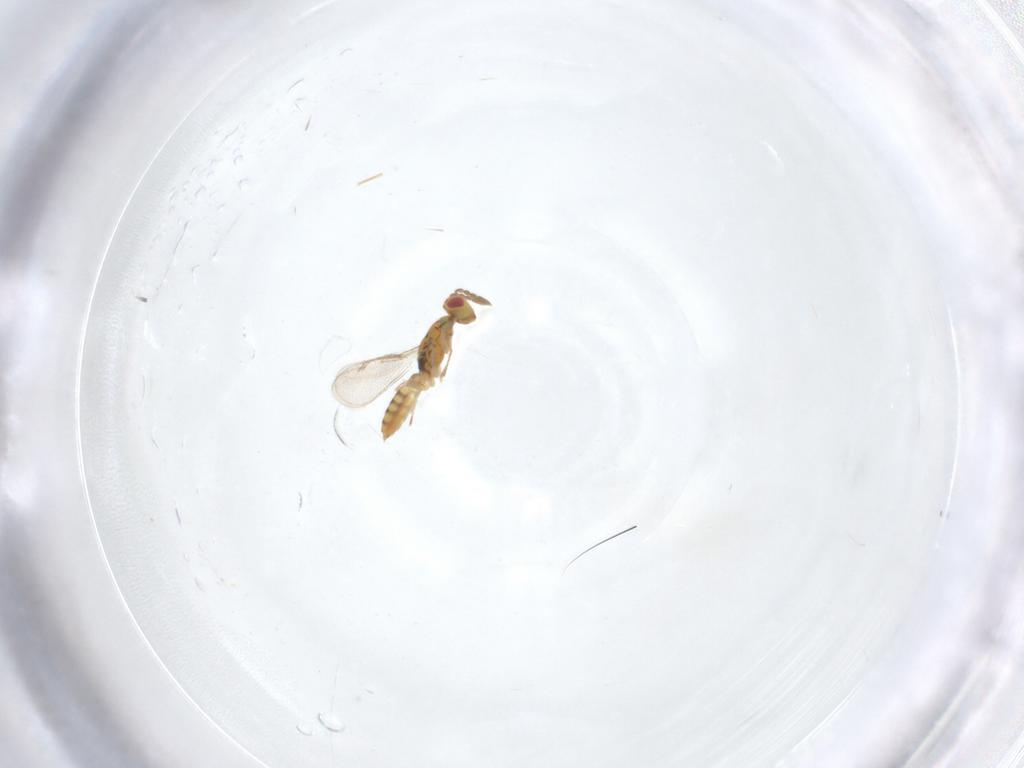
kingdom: Animalia
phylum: Arthropoda
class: Insecta
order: Hymenoptera
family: Eulophidae
